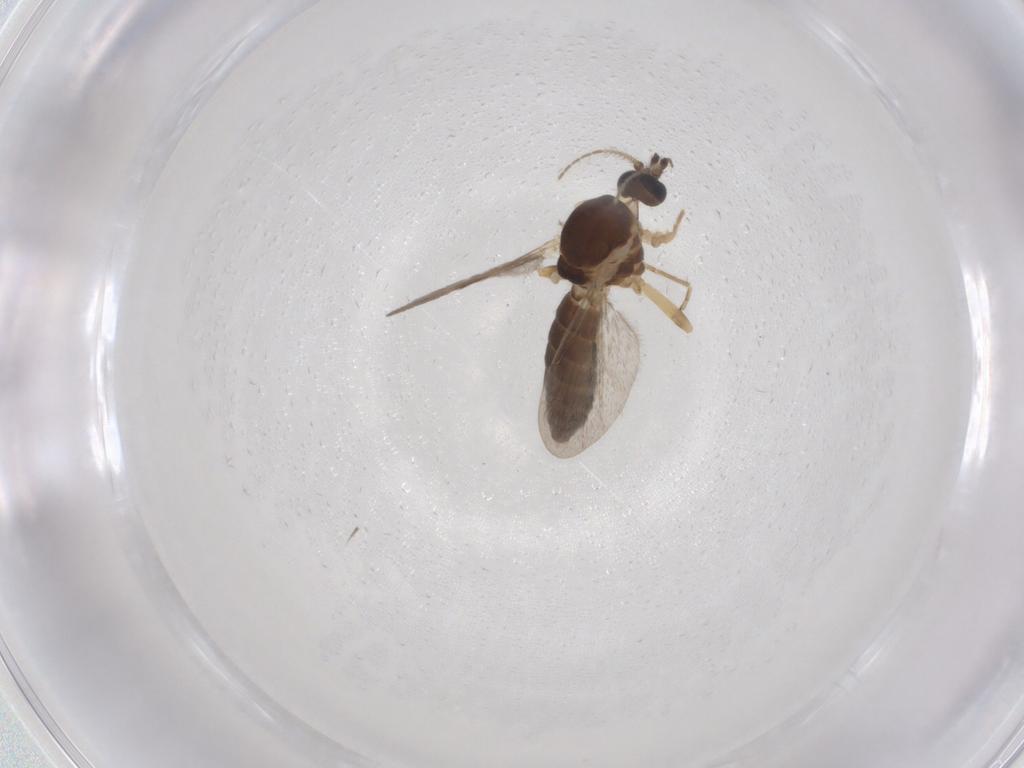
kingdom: Animalia
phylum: Arthropoda
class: Insecta
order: Diptera
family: Ceratopogonidae
